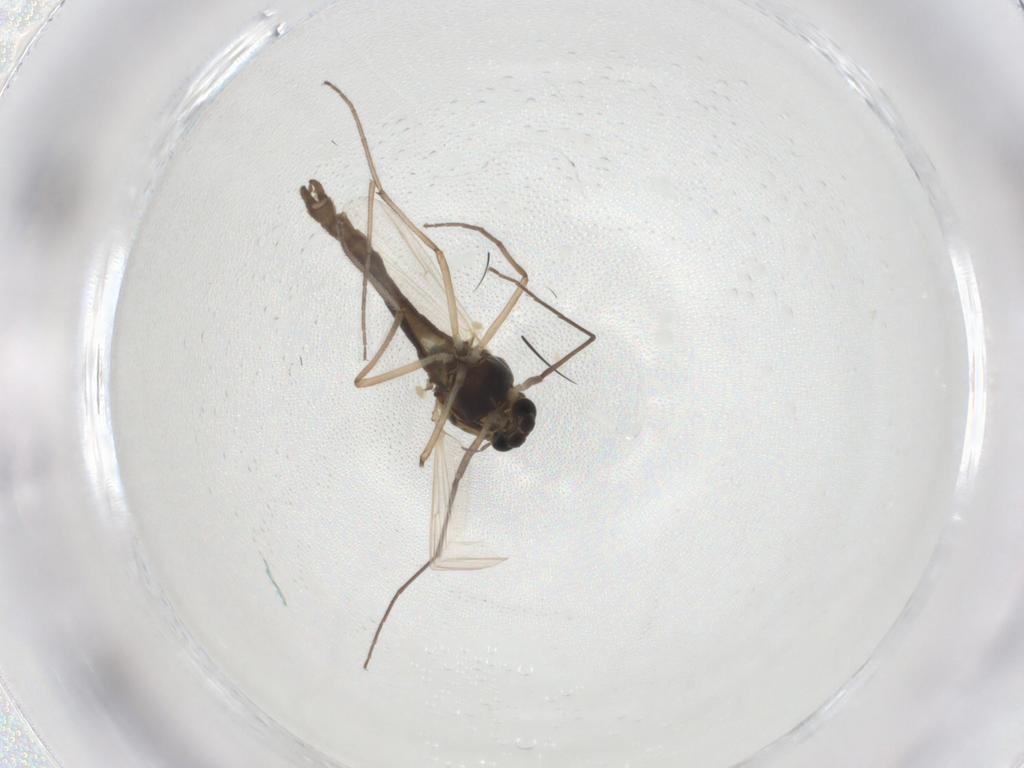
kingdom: Animalia
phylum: Arthropoda
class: Insecta
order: Diptera
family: Chironomidae
